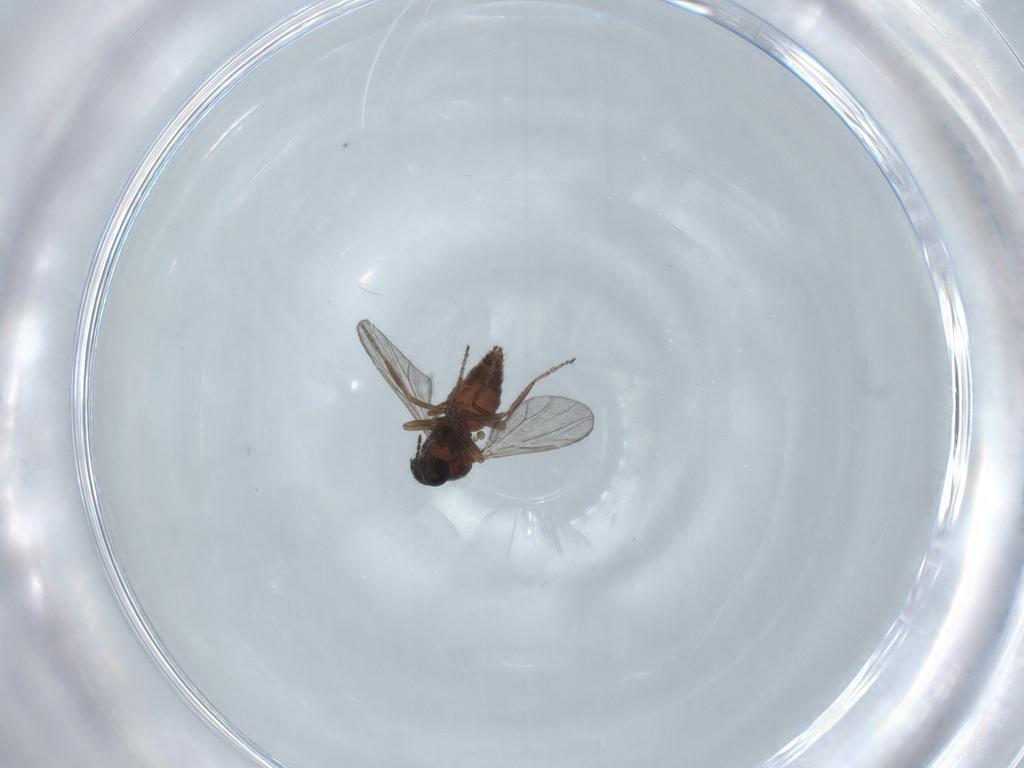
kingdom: Animalia
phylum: Arthropoda
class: Insecta
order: Diptera
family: Ceratopogonidae
